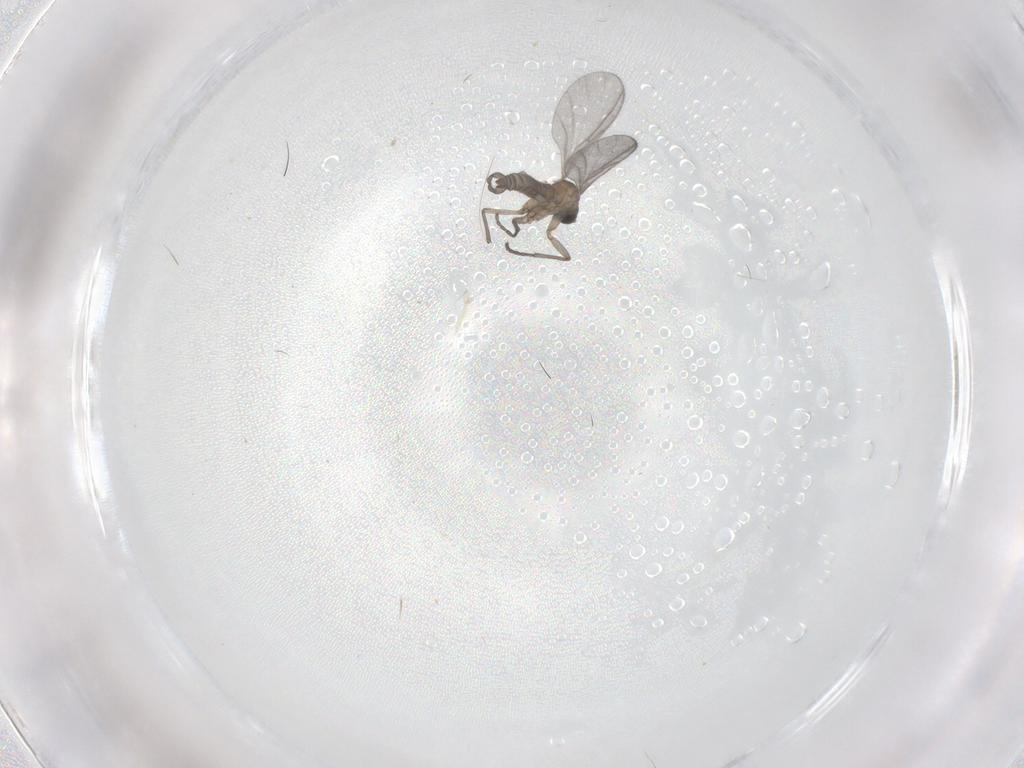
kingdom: Animalia
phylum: Arthropoda
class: Insecta
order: Diptera
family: Sciaridae
